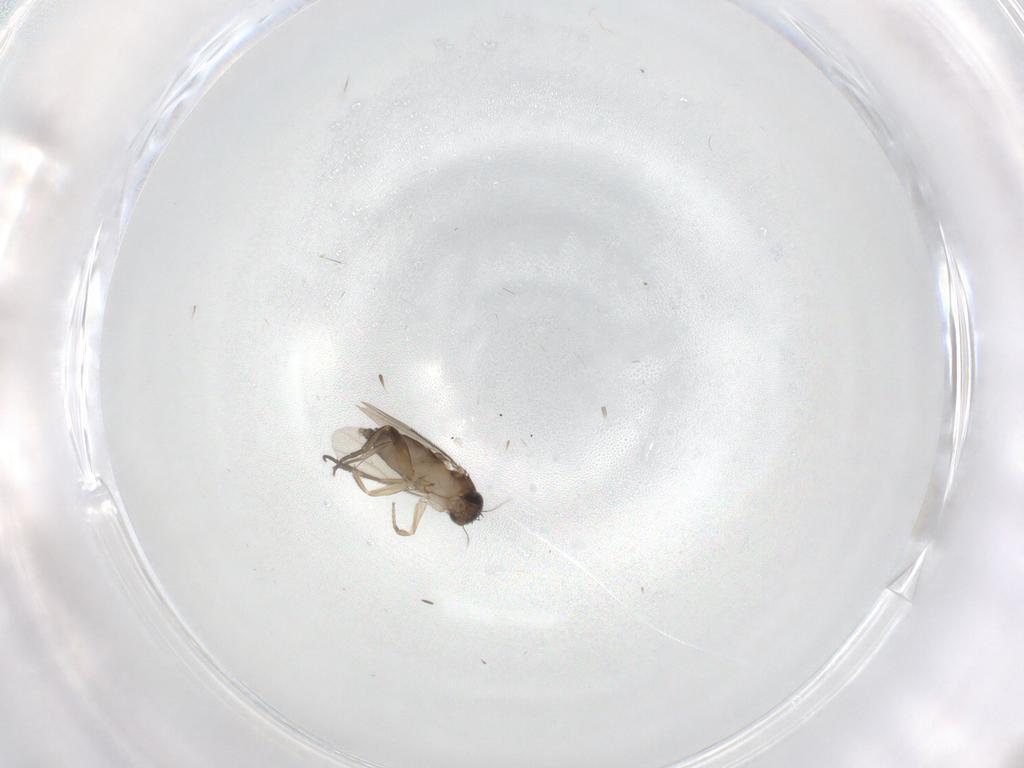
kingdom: Animalia
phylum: Arthropoda
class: Insecta
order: Diptera
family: Phoridae
